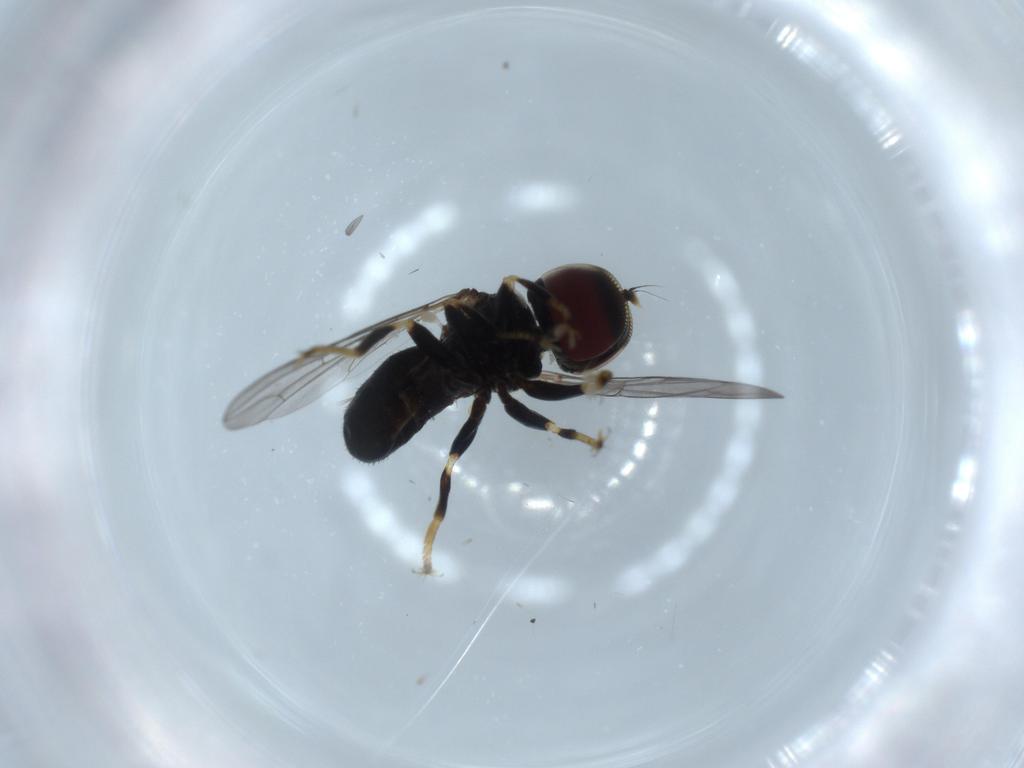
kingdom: Animalia
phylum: Arthropoda
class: Insecta
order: Diptera
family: Pipunculidae
